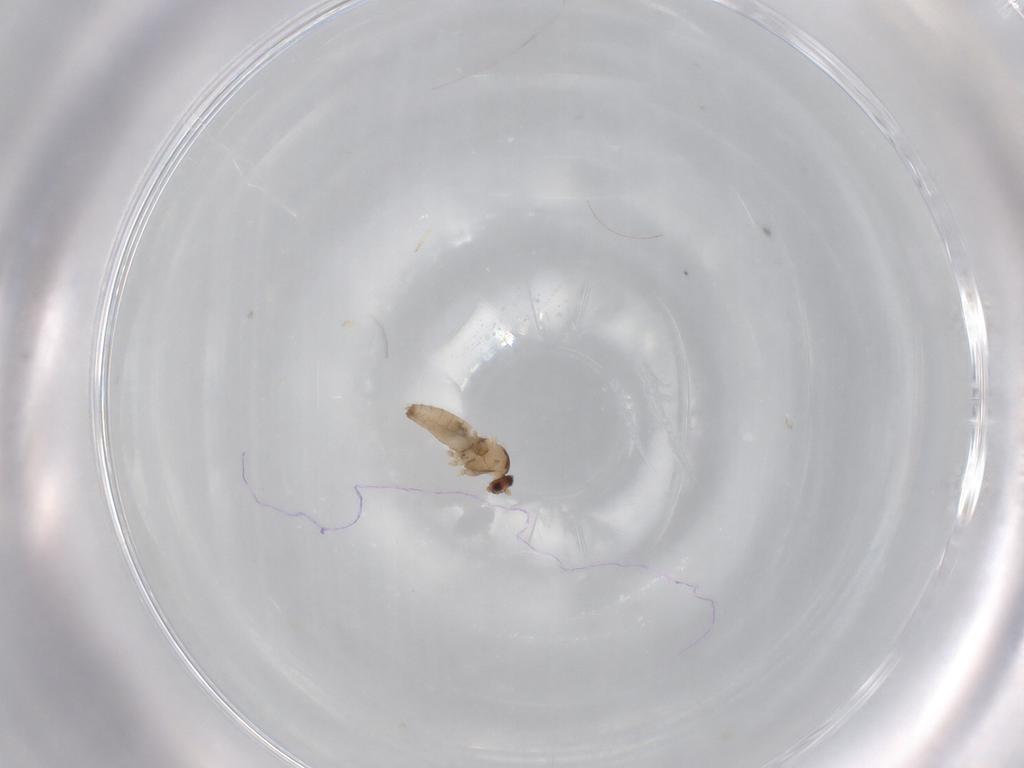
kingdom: Animalia
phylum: Arthropoda
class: Insecta
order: Diptera
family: Cecidomyiidae
